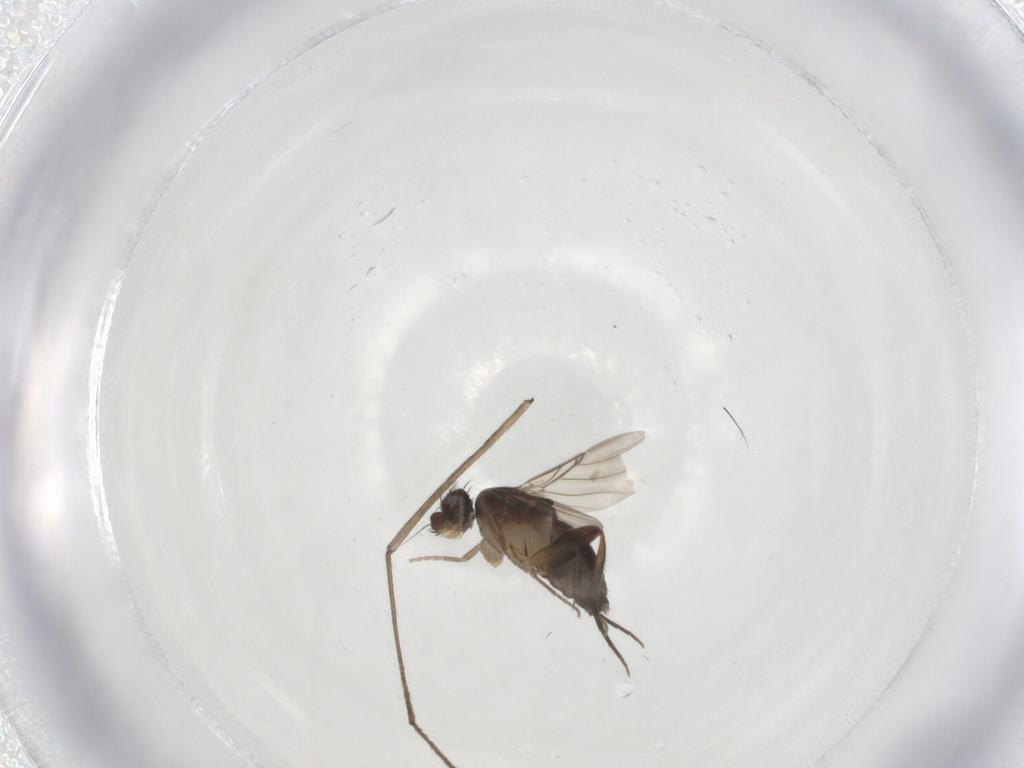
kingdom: Animalia
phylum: Arthropoda
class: Insecta
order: Diptera
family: Phoridae
